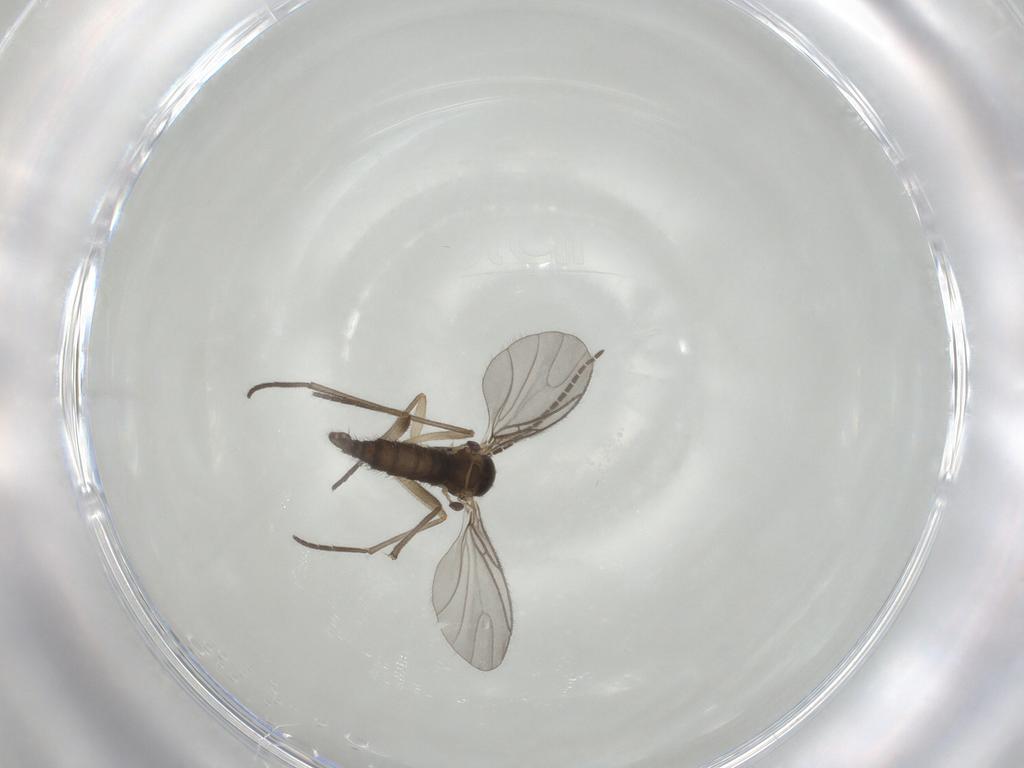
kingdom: Animalia
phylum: Arthropoda
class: Insecta
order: Diptera
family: Sciaridae
